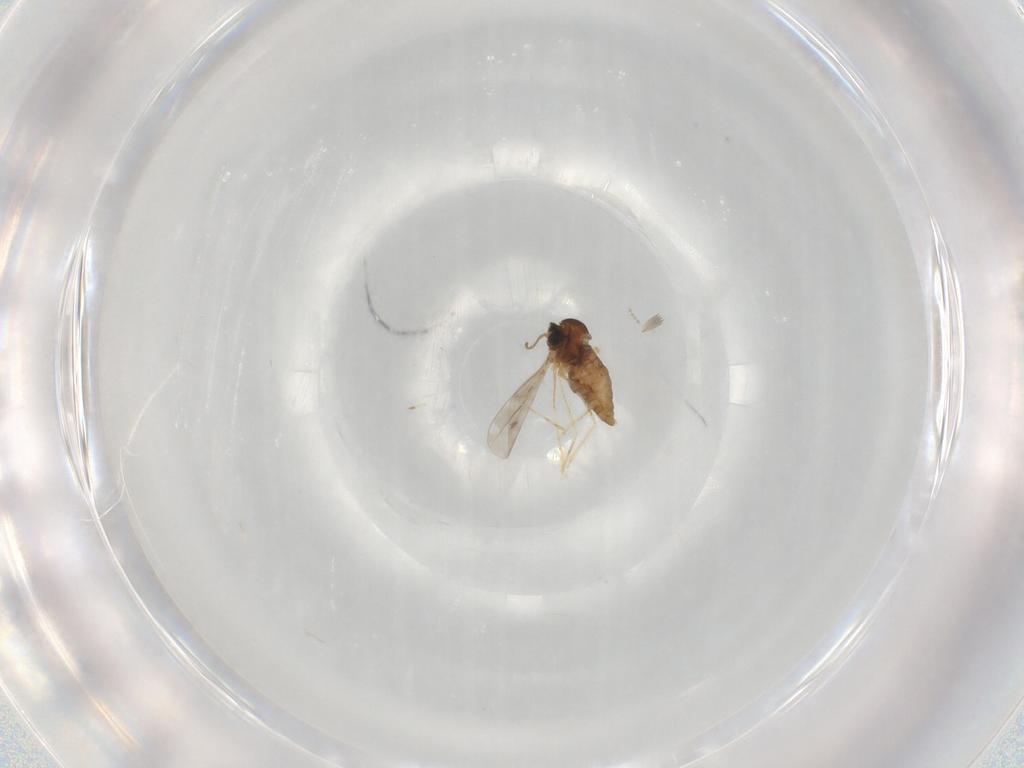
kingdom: Animalia
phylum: Arthropoda
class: Insecta
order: Diptera
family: Cecidomyiidae
